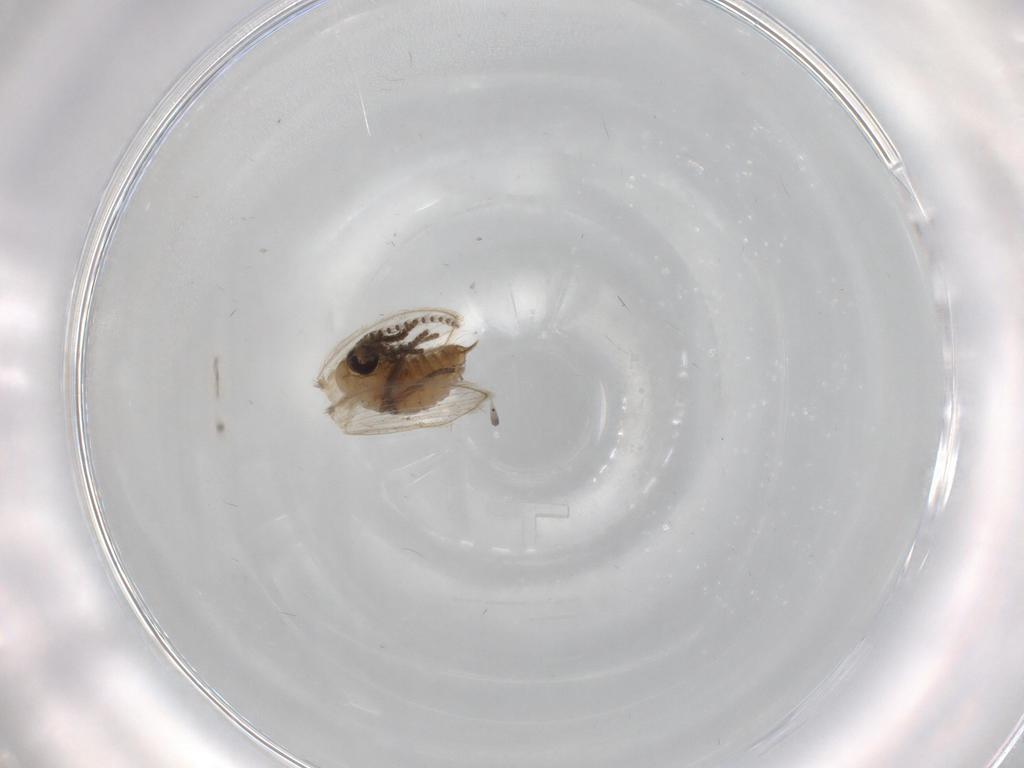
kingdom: Animalia
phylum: Arthropoda
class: Insecta
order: Diptera
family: Psychodidae
